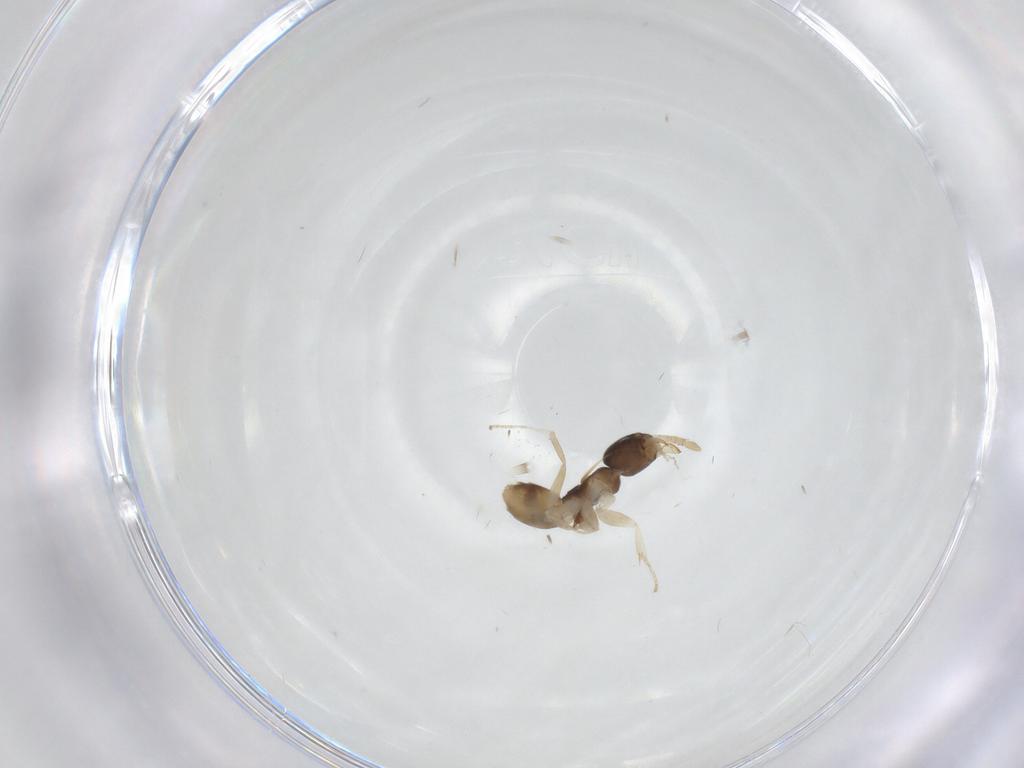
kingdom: Animalia
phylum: Arthropoda
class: Insecta
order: Hymenoptera
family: Formicidae
